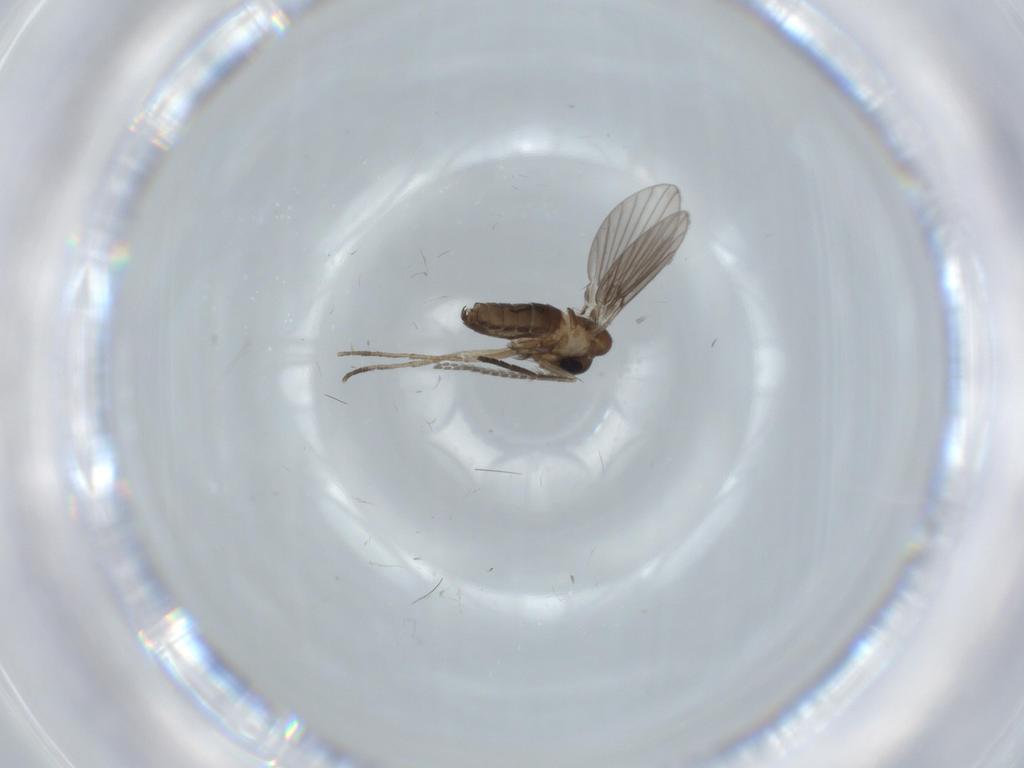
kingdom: Animalia
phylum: Arthropoda
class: Insecta
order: Diptera
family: Psychodidae
